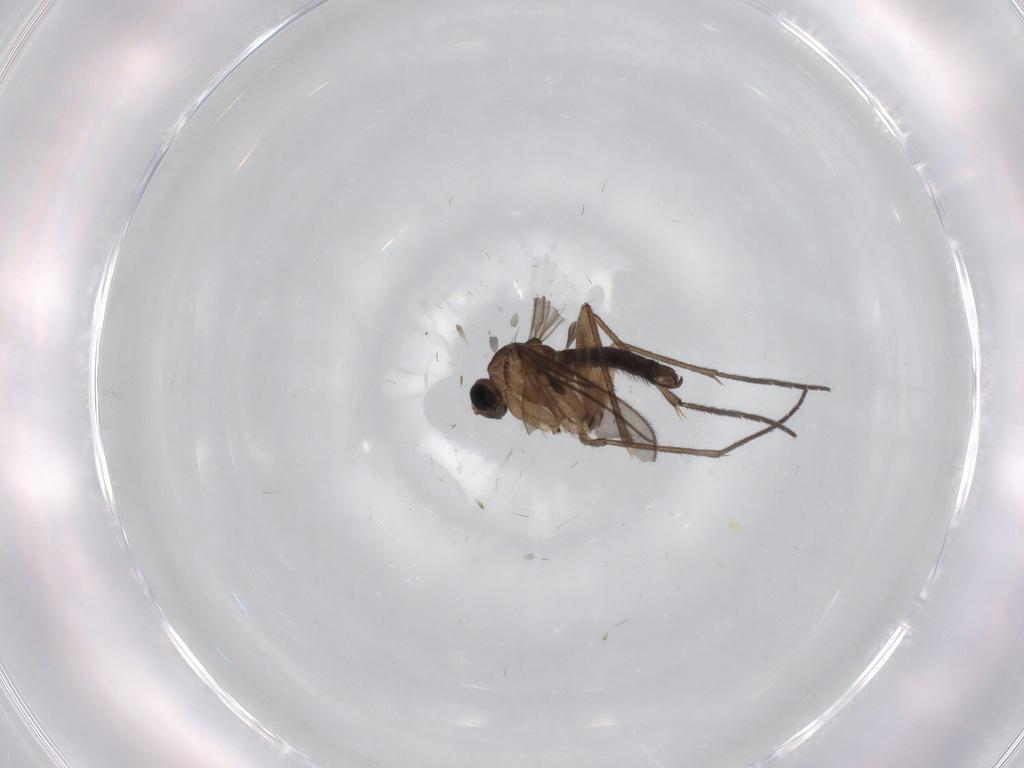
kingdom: Animalia
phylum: Arthropoda
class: Insecta
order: Diptera
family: Sciaridae
